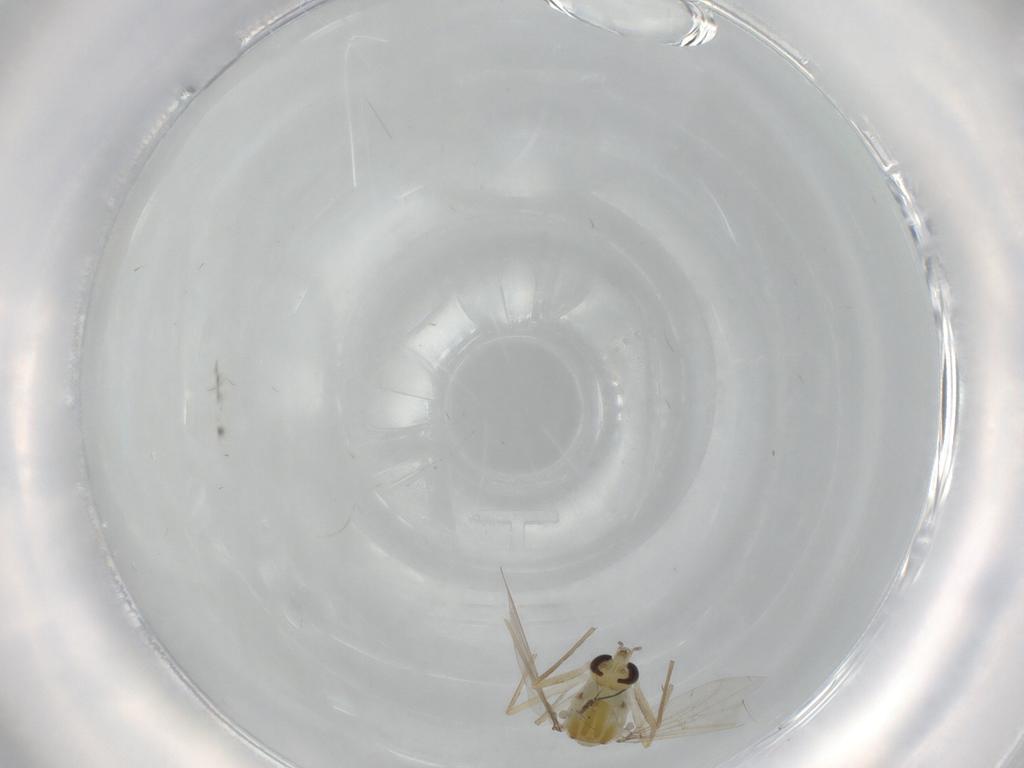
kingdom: Animalia
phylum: Arthropoda
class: Insecta
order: Diptera
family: Chironomidae
